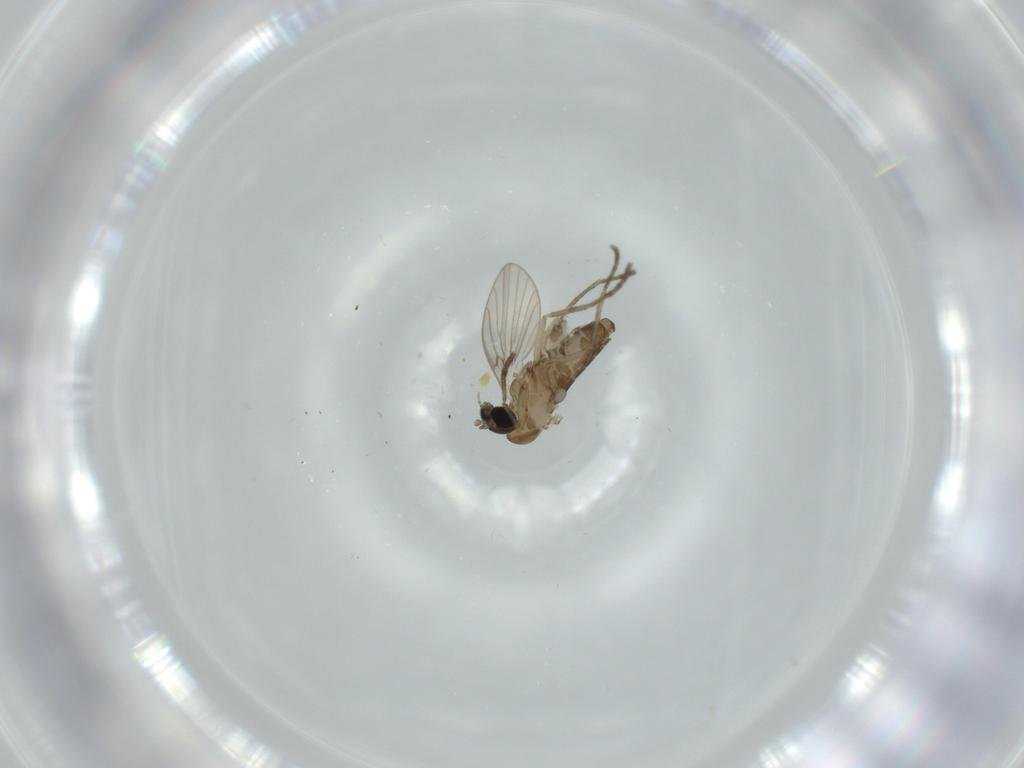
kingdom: Animalia
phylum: Arthropoda
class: Insecta
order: Diptera
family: Psychodidae
